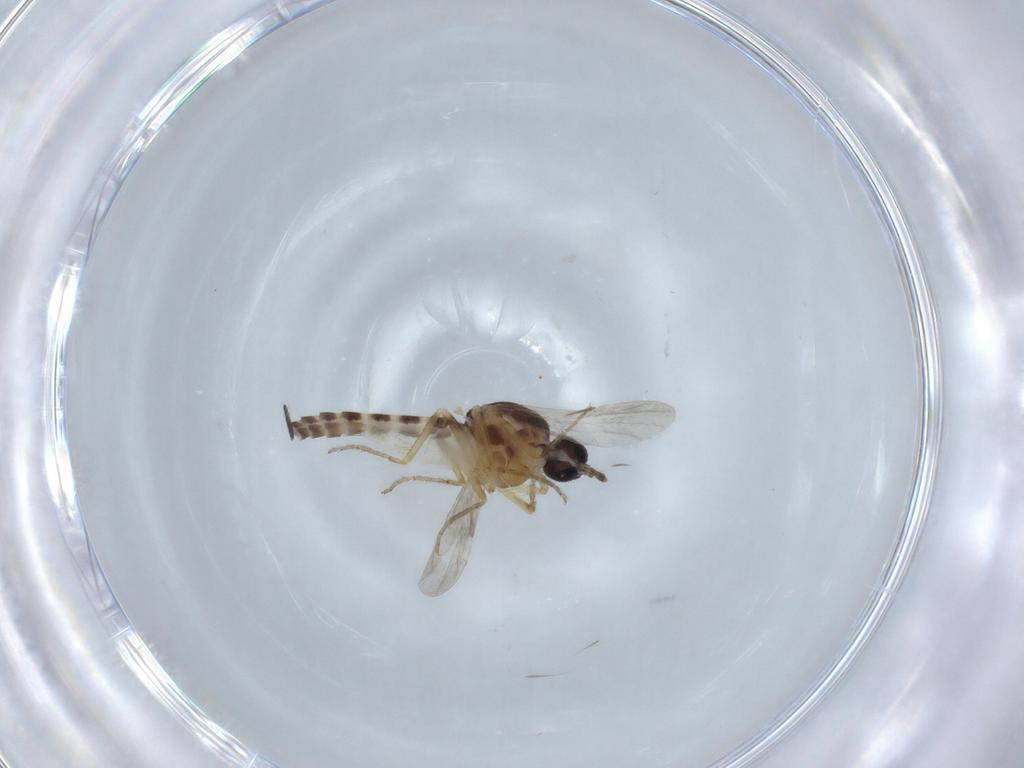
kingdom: Animalia
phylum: Arthropoda
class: Insecta
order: Diptera
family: Ceratopogonidae
